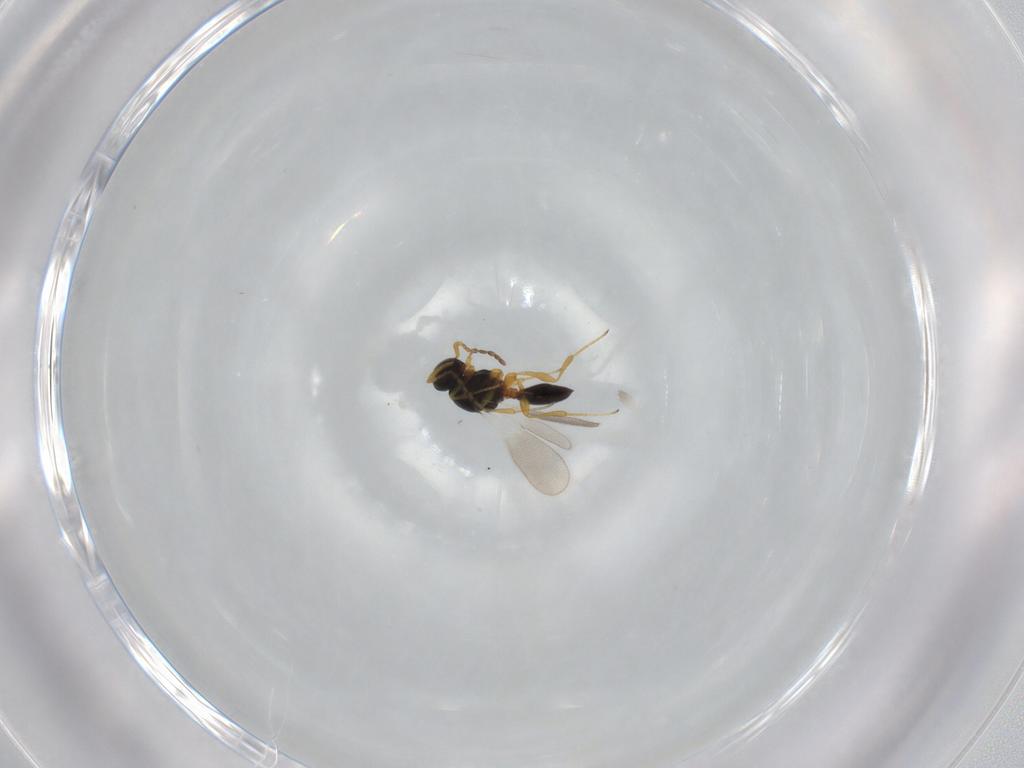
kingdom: Animalia
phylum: Arthropoda
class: Insecta
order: Hymenoptera
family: Platygastridae
